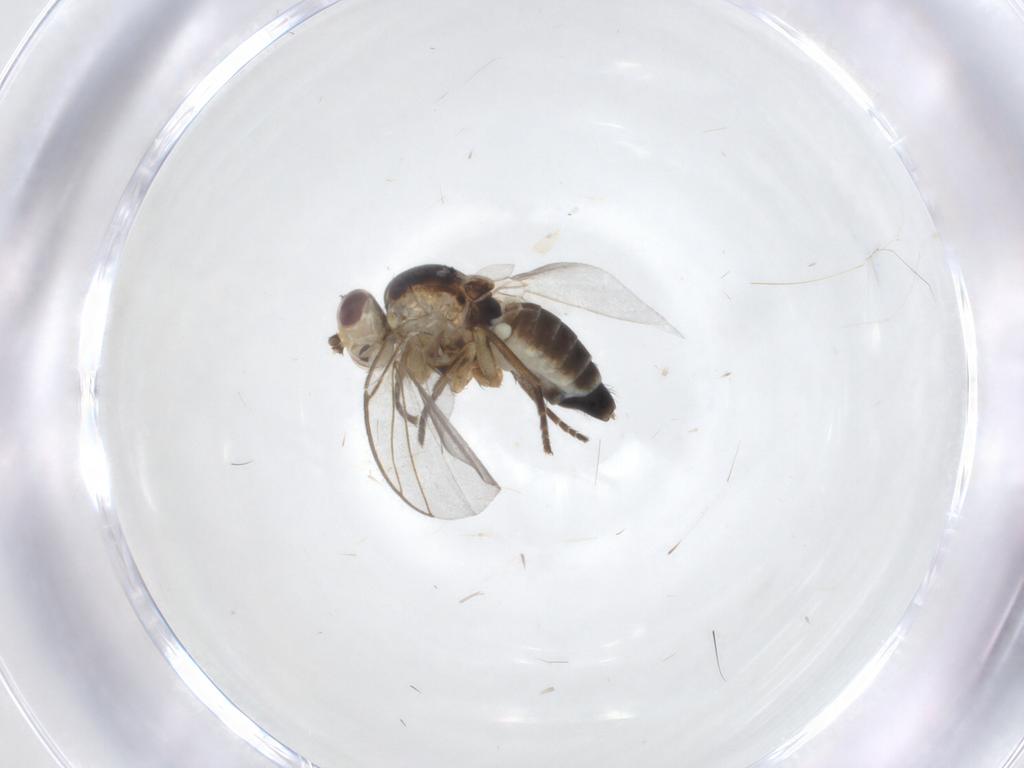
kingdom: Animalia
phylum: Arthropoda
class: Insecta
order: Diptera
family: Agromyzidae
